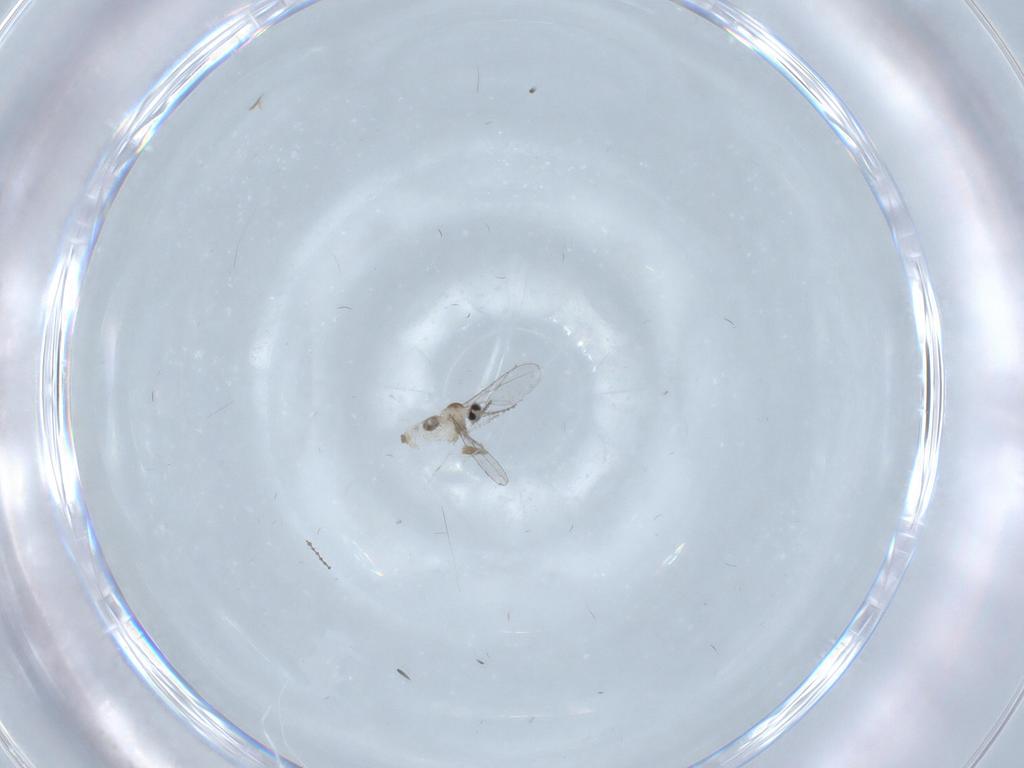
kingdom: Animalia
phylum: Arthropoda
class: Insecta
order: Diptera
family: Cecidomyiidae
